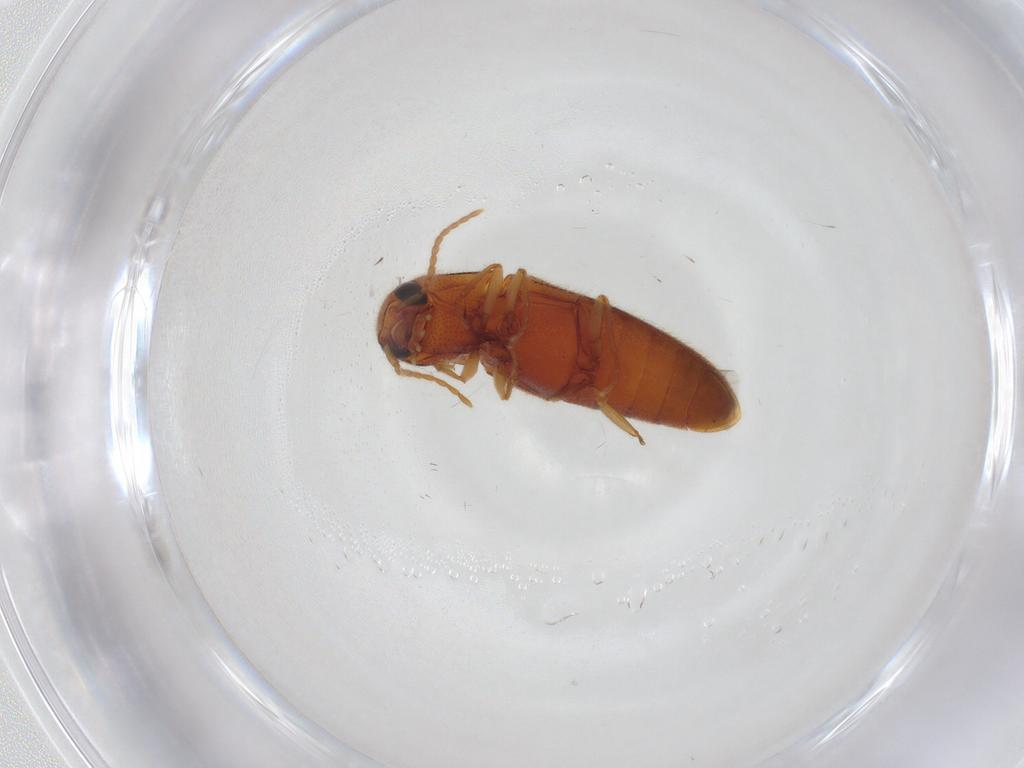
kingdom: Animalia
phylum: Arthropoda
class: Insecta
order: Coleoptera
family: Elateridae
